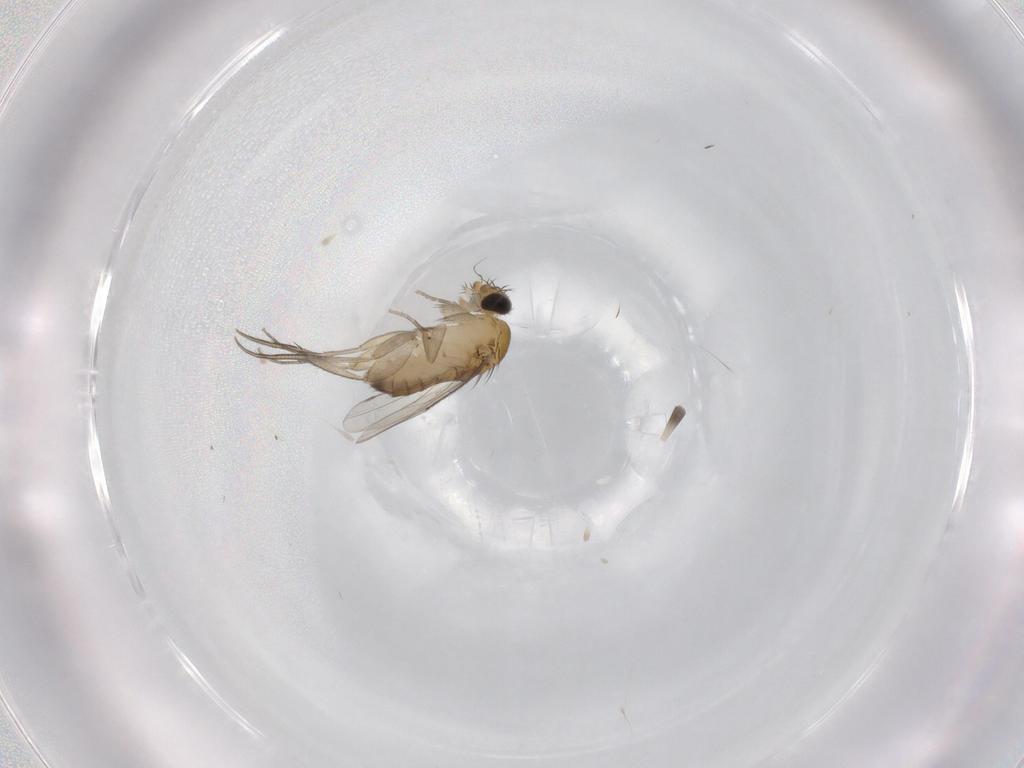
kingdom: Animalia
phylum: Arthropoda
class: Insecta
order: Diptera
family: Phoridae
